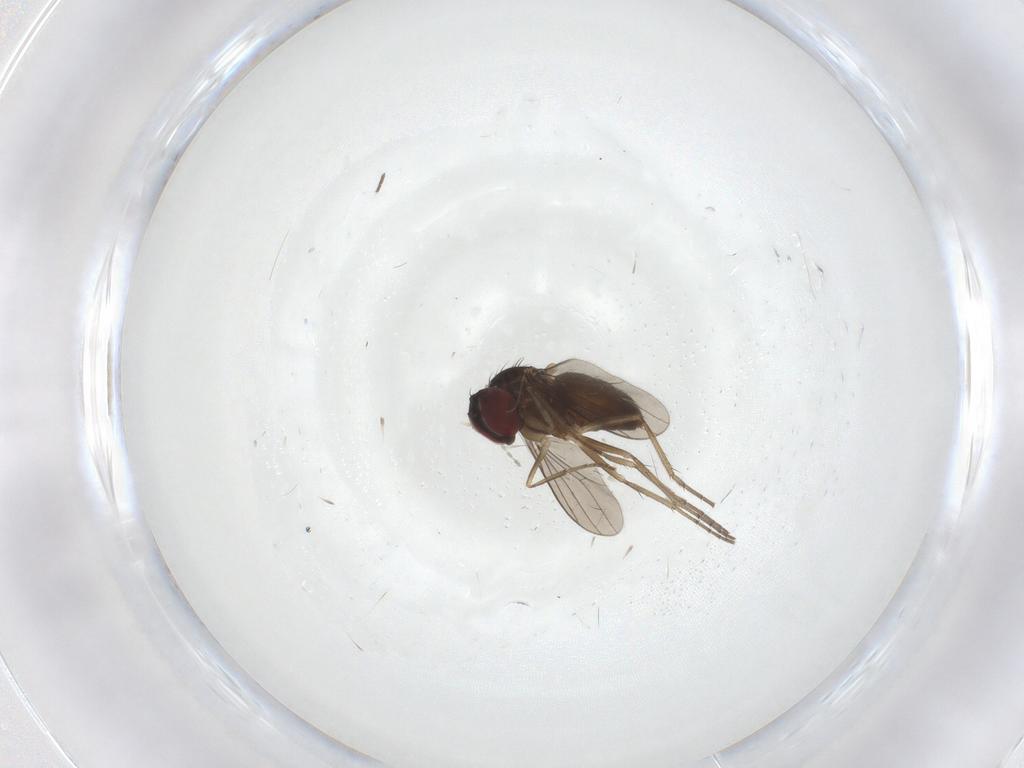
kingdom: Animalia
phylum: Arthropoda
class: Insecta
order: Diptera
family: Cecidomyiidae
